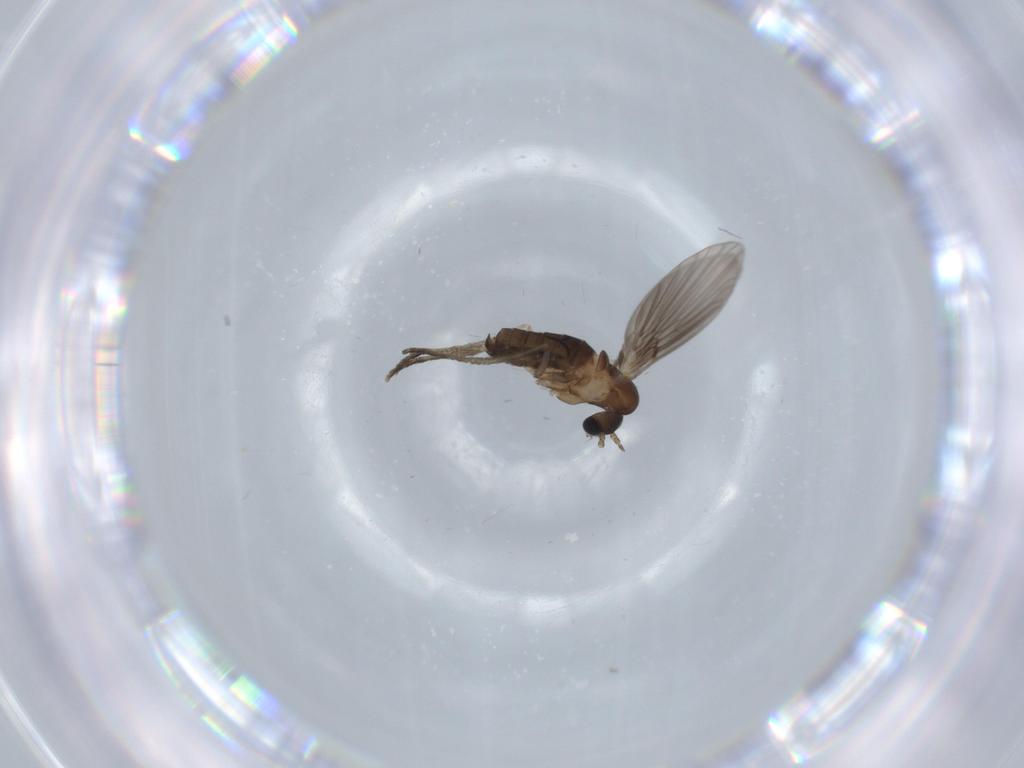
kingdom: Animalia
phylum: Arthropoda
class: Insecta
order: Diptera
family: Psychodidae
